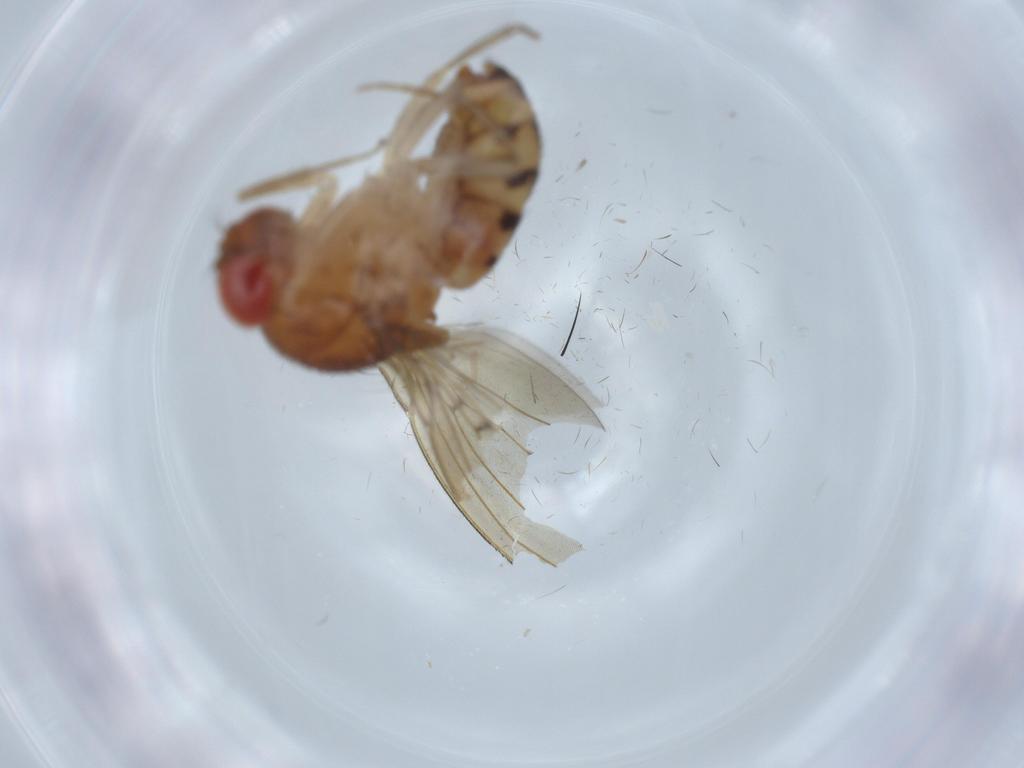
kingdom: Animalia
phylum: Arthropoda
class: Insecta
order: Diptera
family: Drosophilidae
